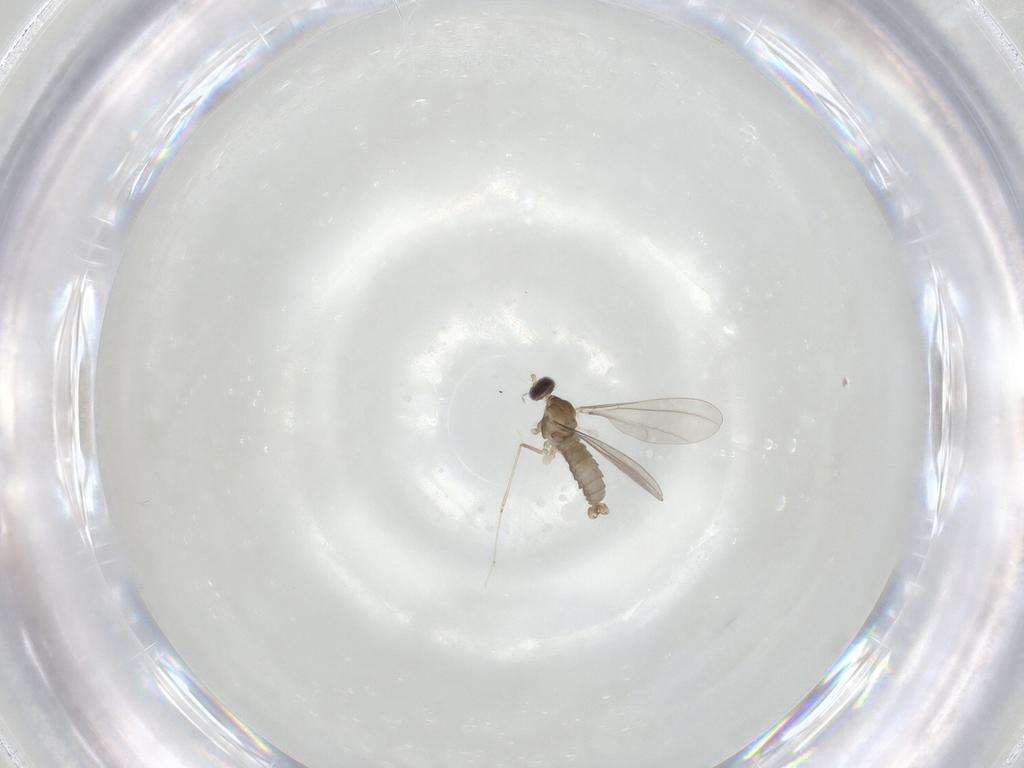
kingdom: Animalia
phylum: Arthropoda
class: Insecta
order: Diptera
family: Cecidomyiidae
